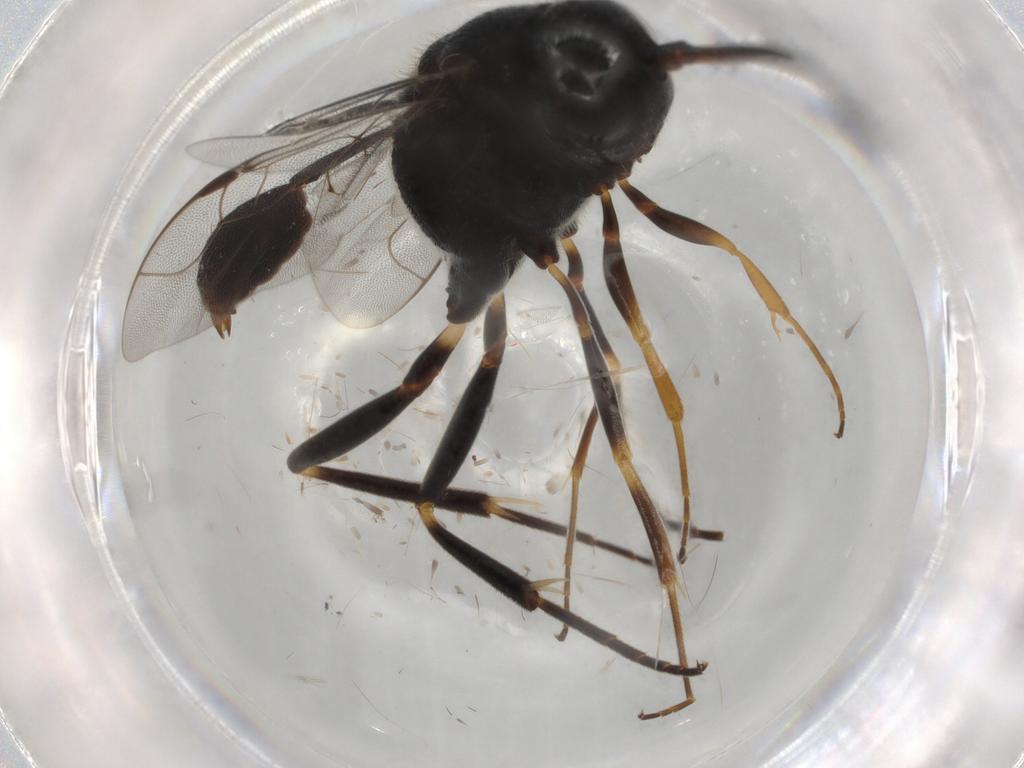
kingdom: Animalia
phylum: Arthropoda
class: Insecta
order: Hymenoptera
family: Evaniidae
